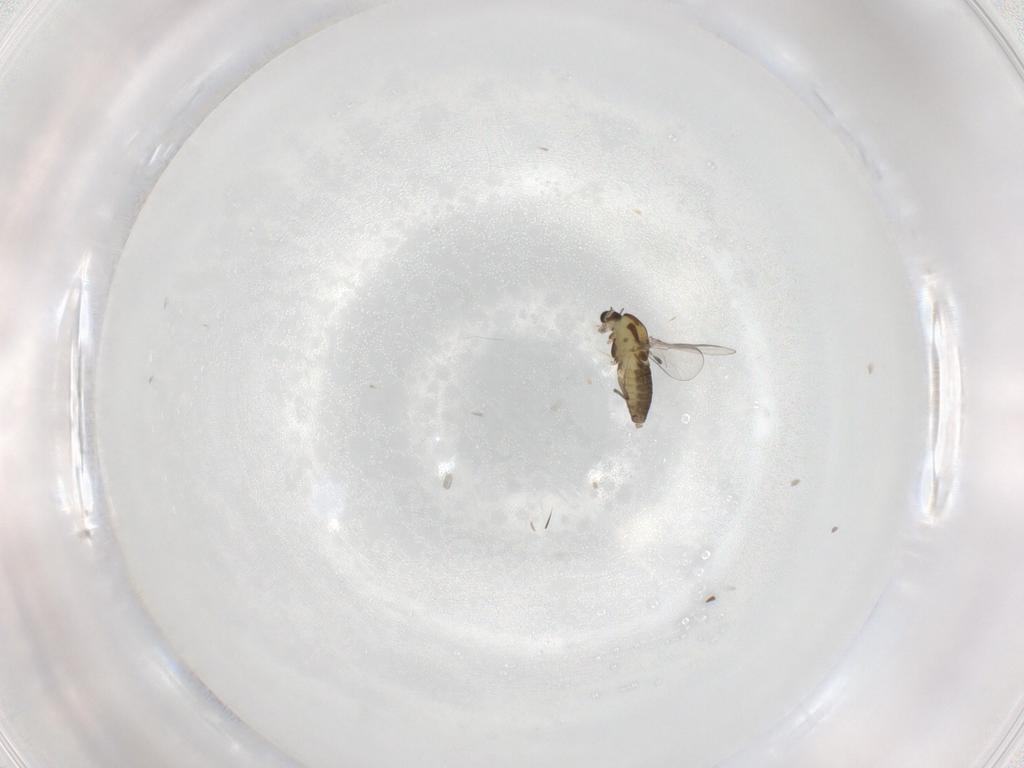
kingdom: Animalia
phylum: Arthropoda
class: Insecta
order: Diptera
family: Chironomidae
